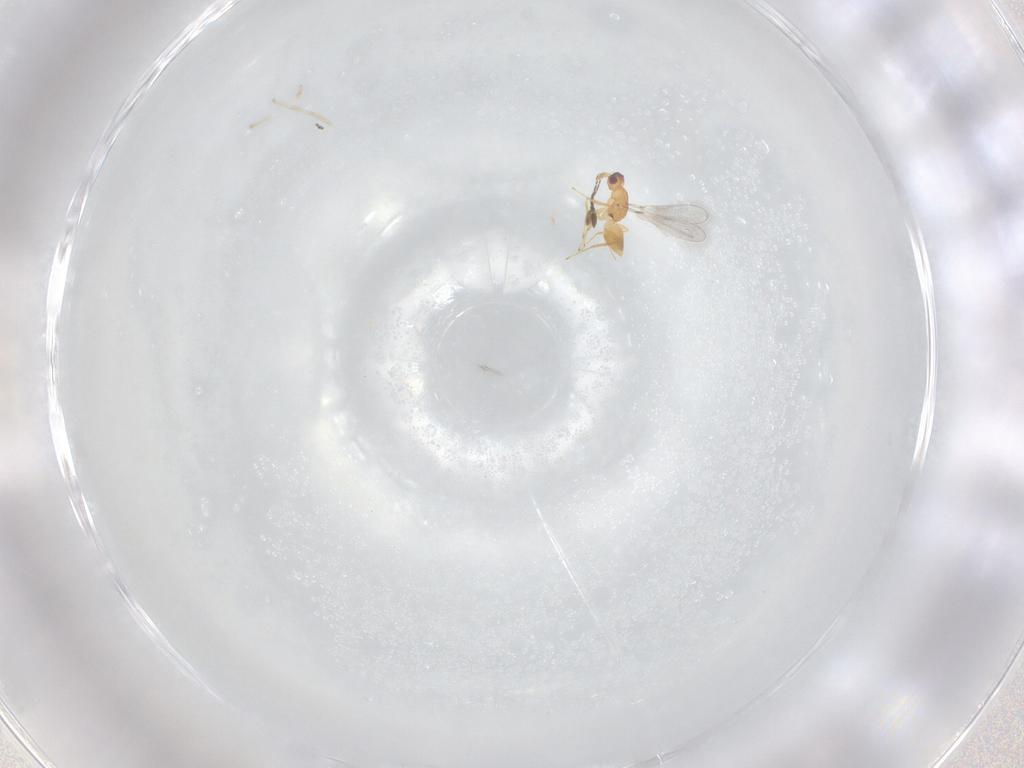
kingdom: Animalia
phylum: Arthropoda
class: Insecta
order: Hymenoptera
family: Mymaridae
